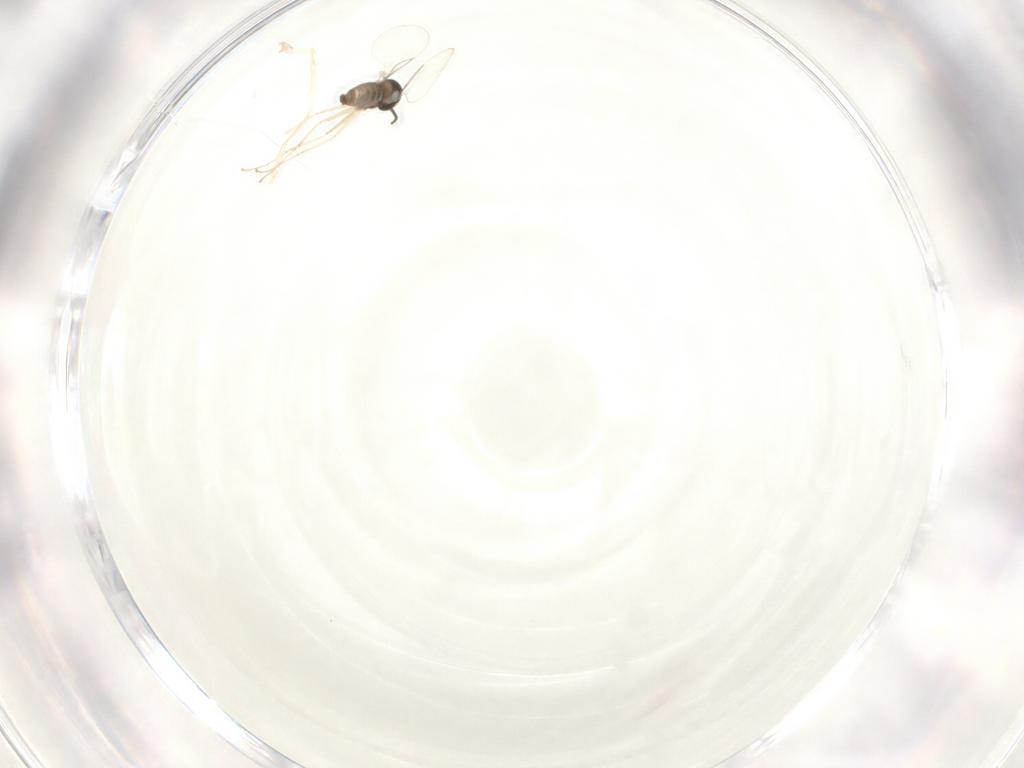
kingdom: Animalia
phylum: Arthropoda
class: Insecta
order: Diptera
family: Cecidomyiidae
